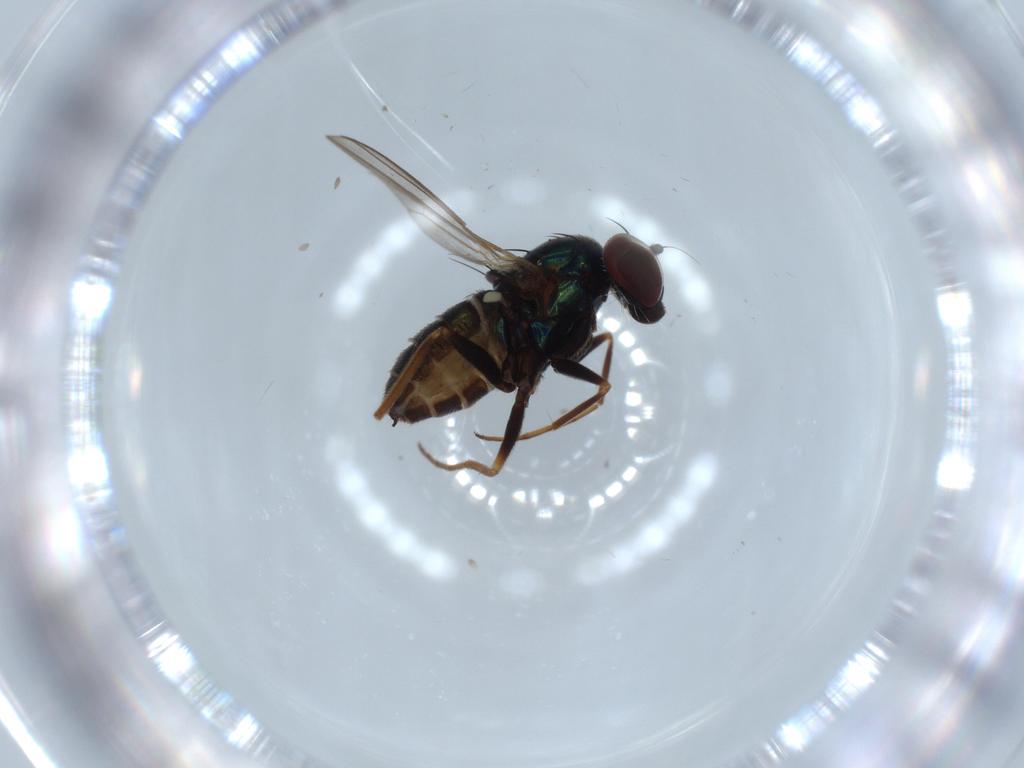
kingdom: Animalia
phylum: Arthropoda
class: Insecta
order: Diptera
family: Dolichopodidae
